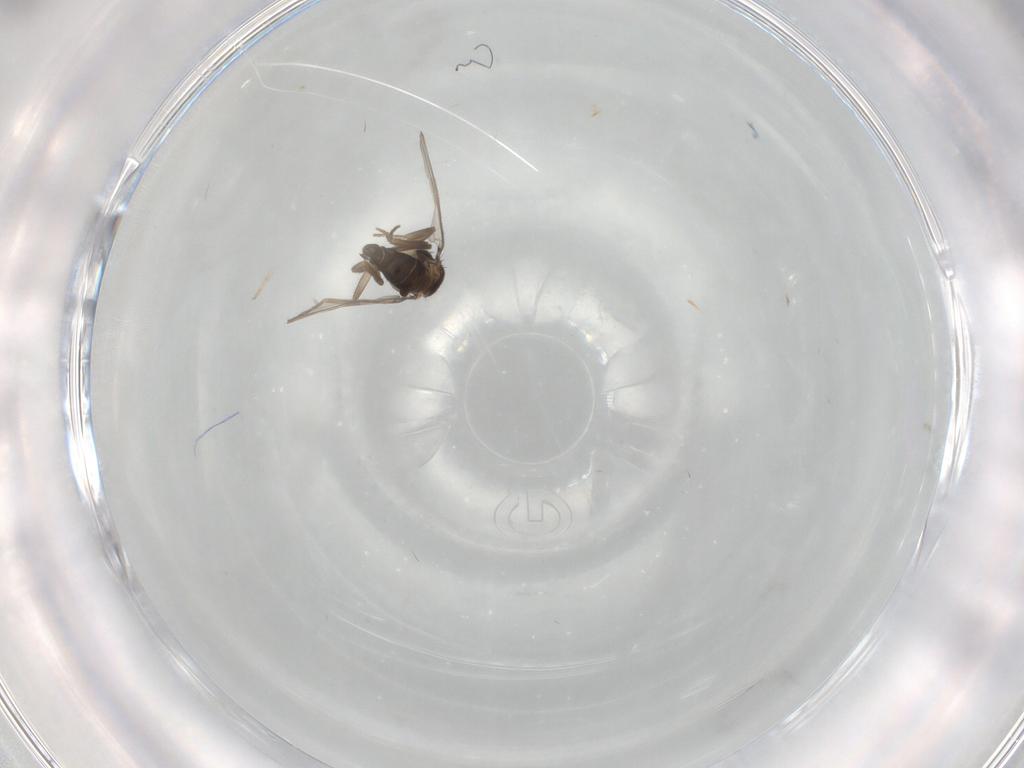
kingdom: Animalia
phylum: Arthropoda
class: Insecta
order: Diptera
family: Phoridae
